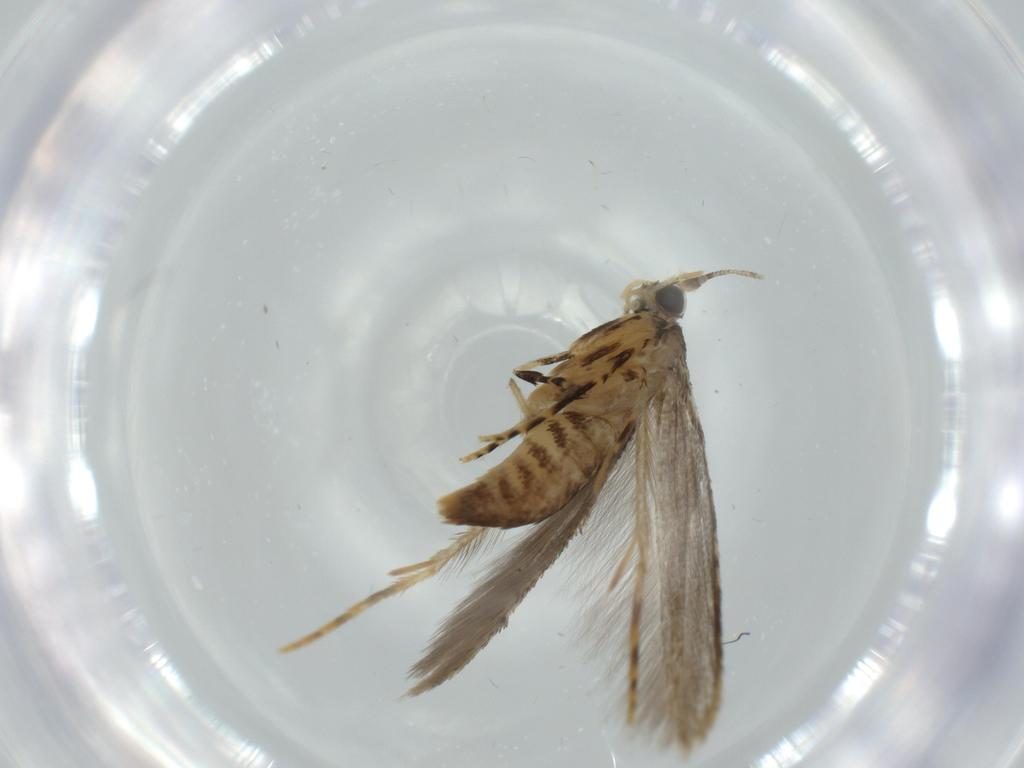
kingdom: Animalia
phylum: Arthropoda
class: Insecta
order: Lepidoptera
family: Tineidae
